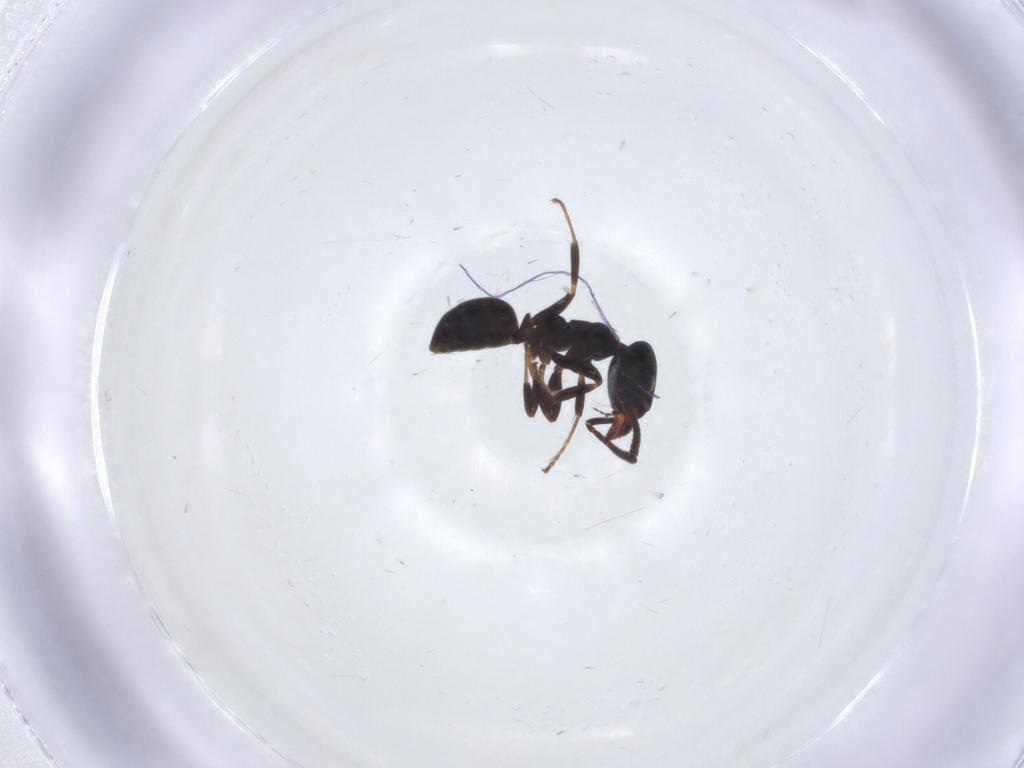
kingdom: Animalia
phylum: Arthropoda
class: Insecta
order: Hymenoptera
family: Formicidae
